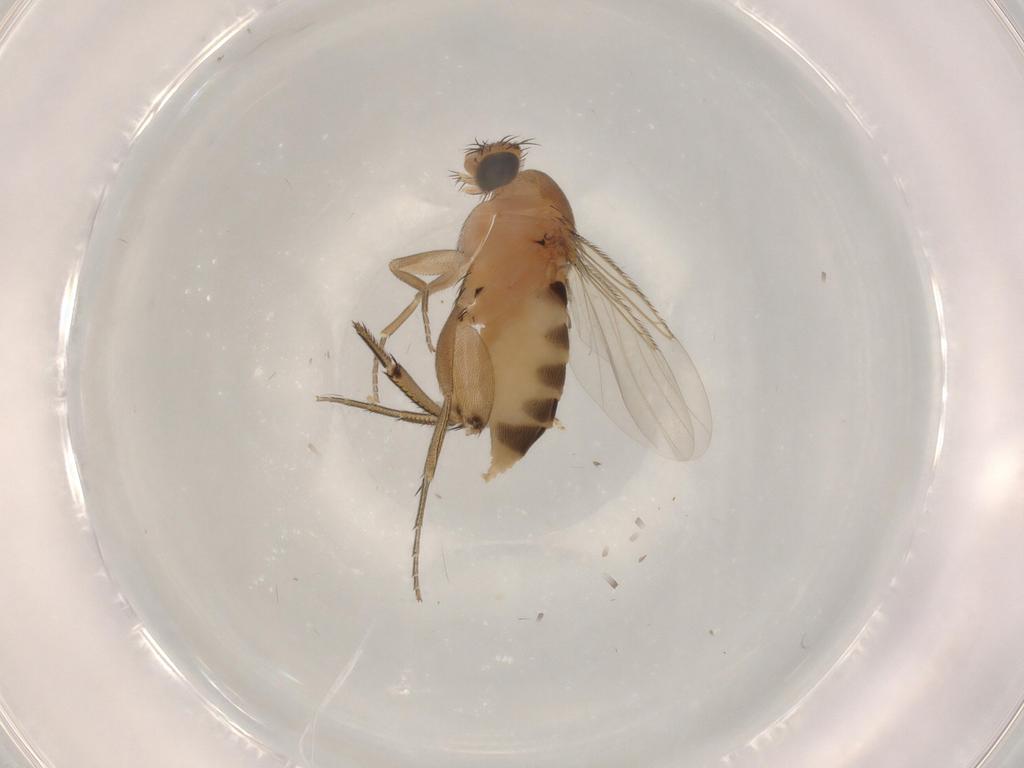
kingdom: Animalia
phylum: Arthropoda
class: Insecta
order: Diptera
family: Ceratopogonidae
